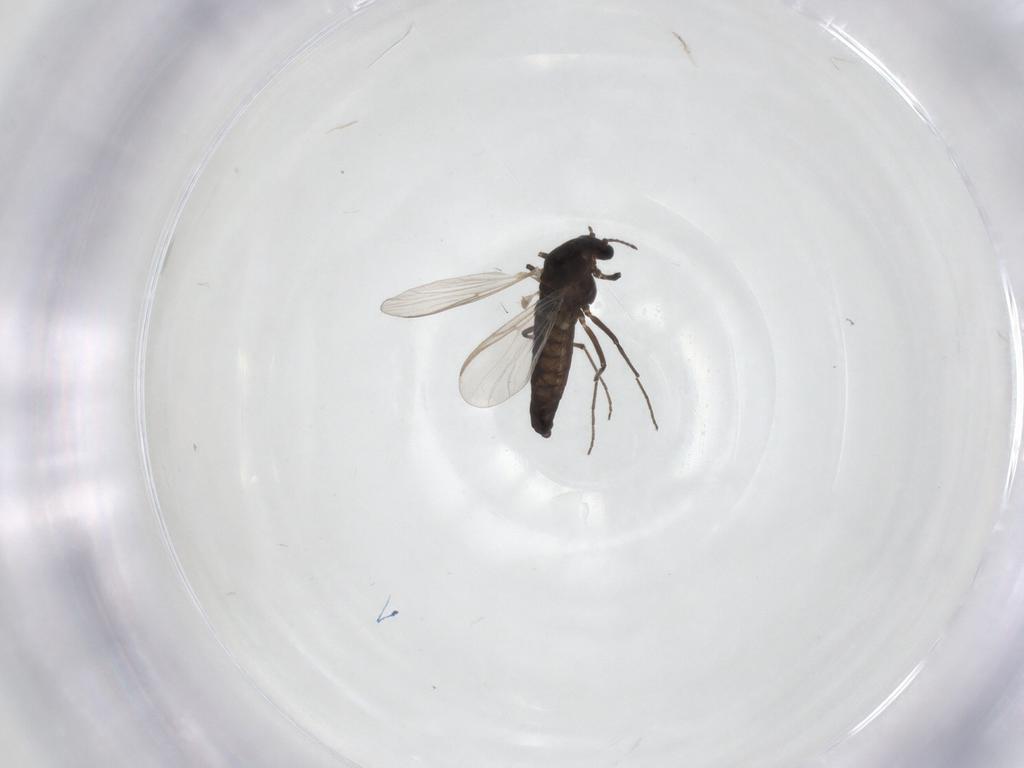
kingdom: Animalia
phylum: Arthropoda
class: Insecta
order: Diptera
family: Chironomidae
